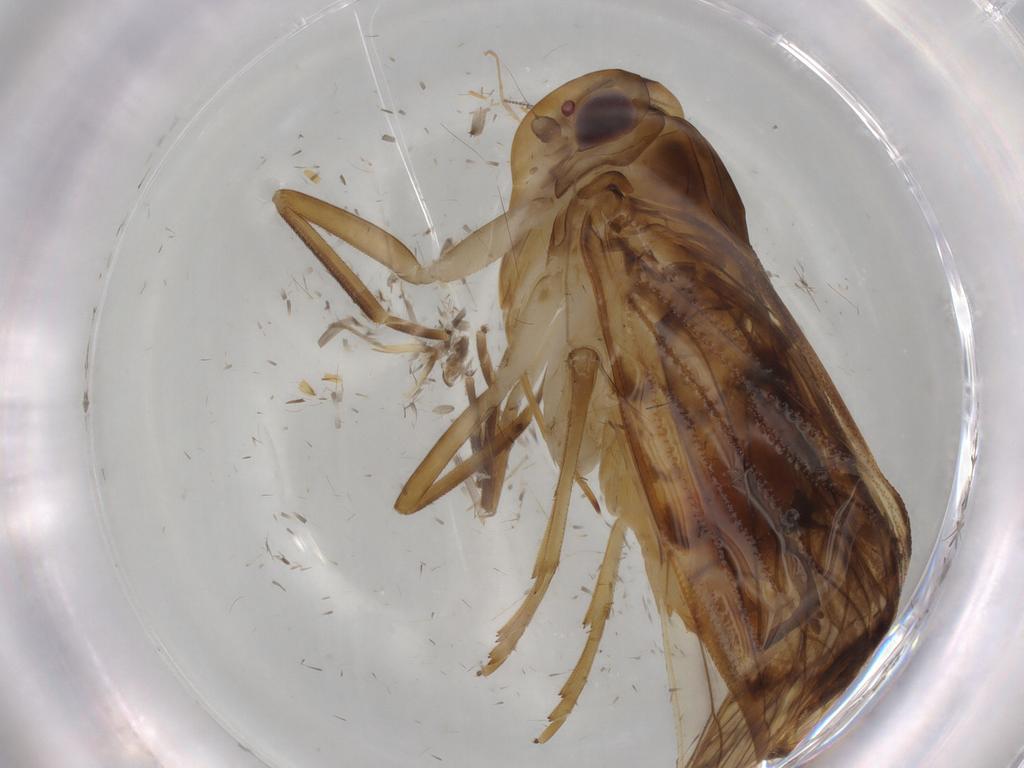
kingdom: Animalia
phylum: Arthropoda
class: Insecta
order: Hemiptera
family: Cixiidae
